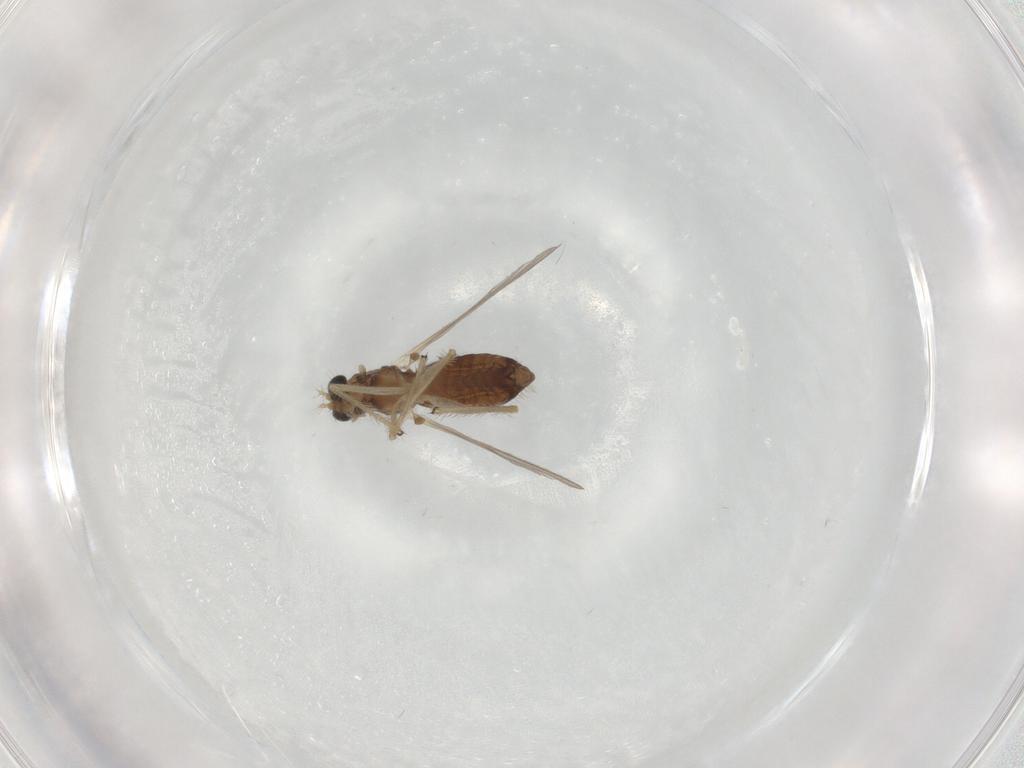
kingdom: Animalia
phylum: Arthropoda
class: Insecta
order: Diptera
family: Chironomidae
